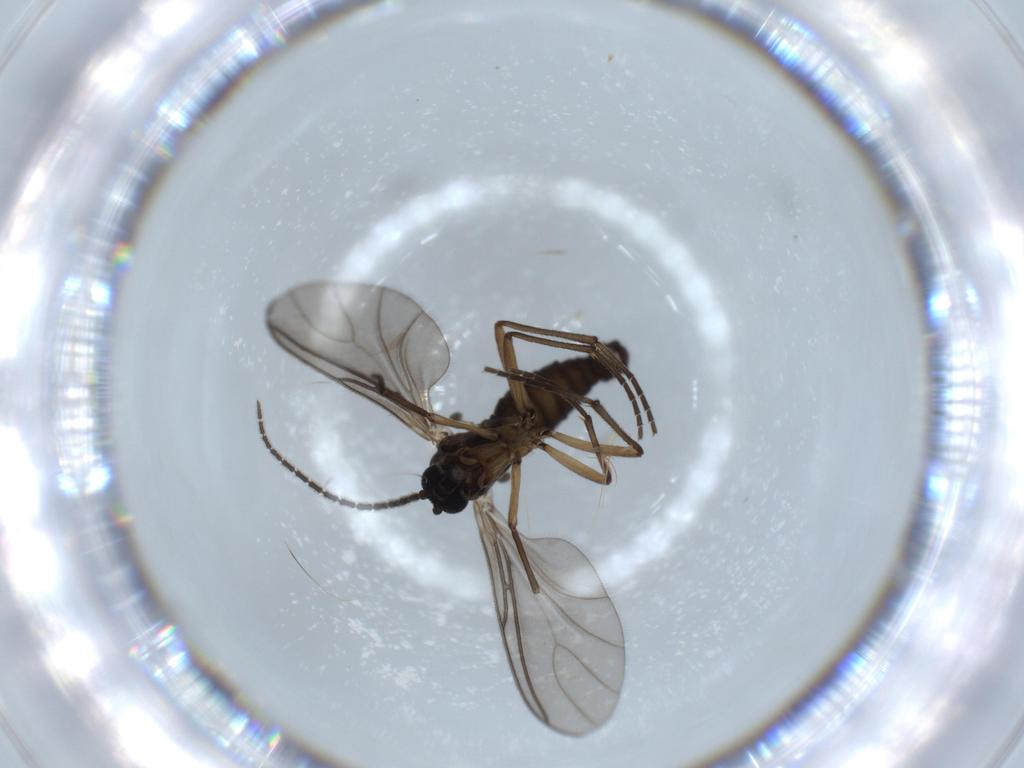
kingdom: Animalia
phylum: Arthropoda
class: Insecta
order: Diptera
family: Sciaridae
